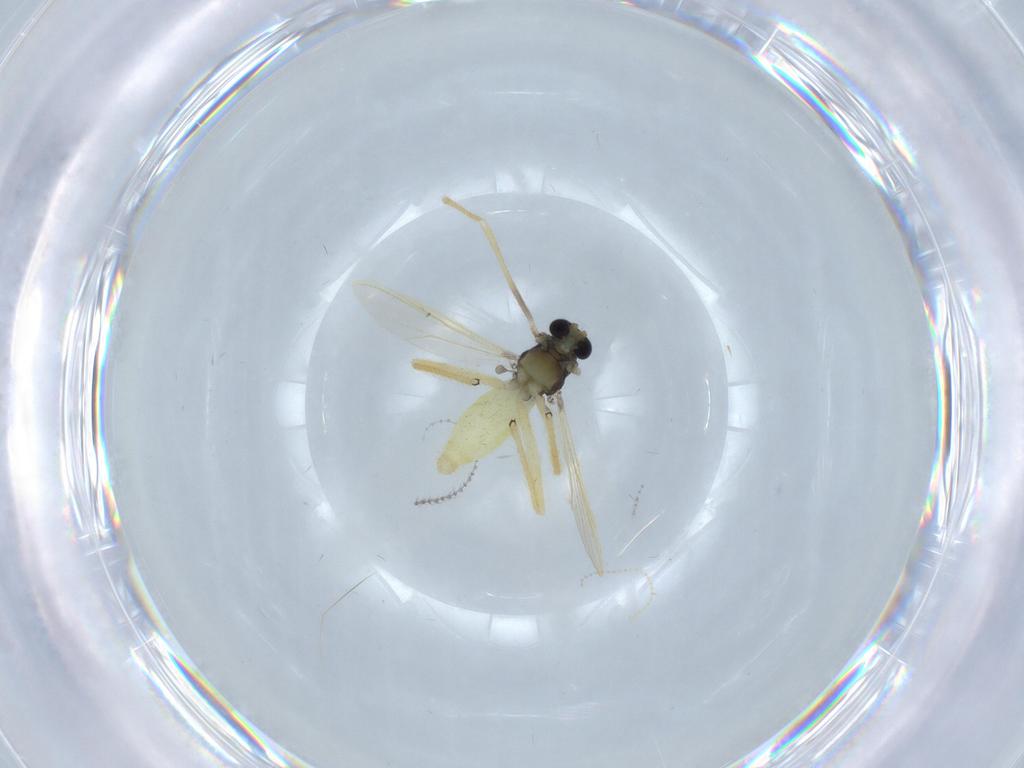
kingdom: Animalia
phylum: Arthropoda
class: Insecta
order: Diptera
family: Chironomidae
